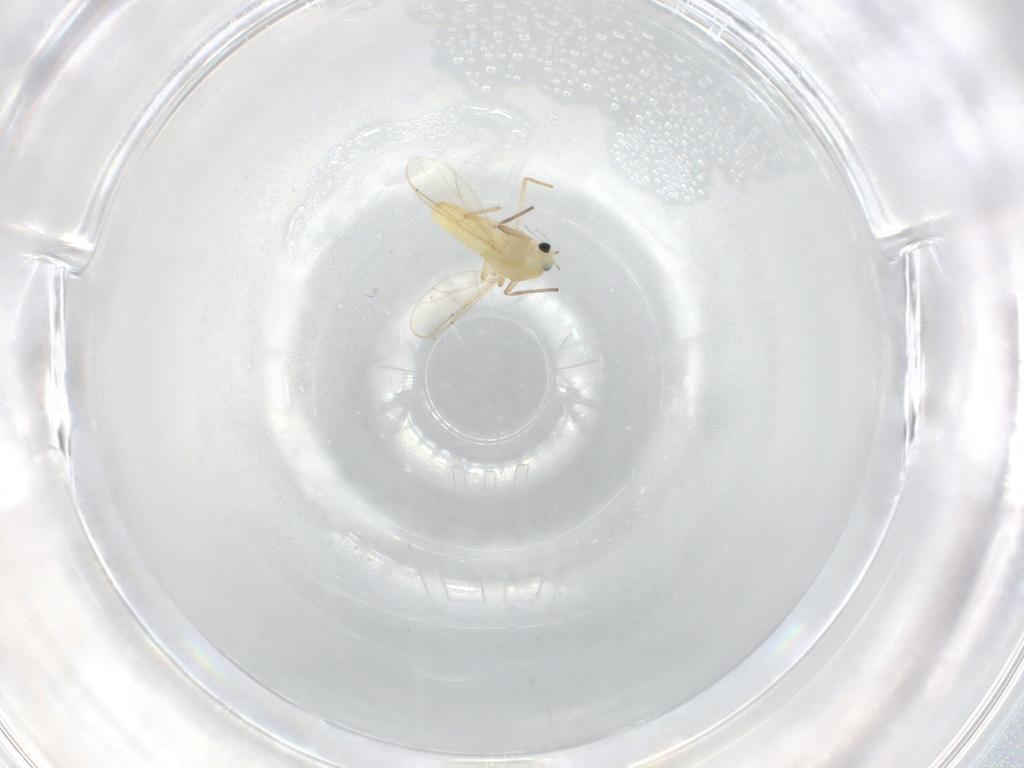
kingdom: Animalia
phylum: Arthropoda
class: Insecta
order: Diptera
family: Chironomidae
